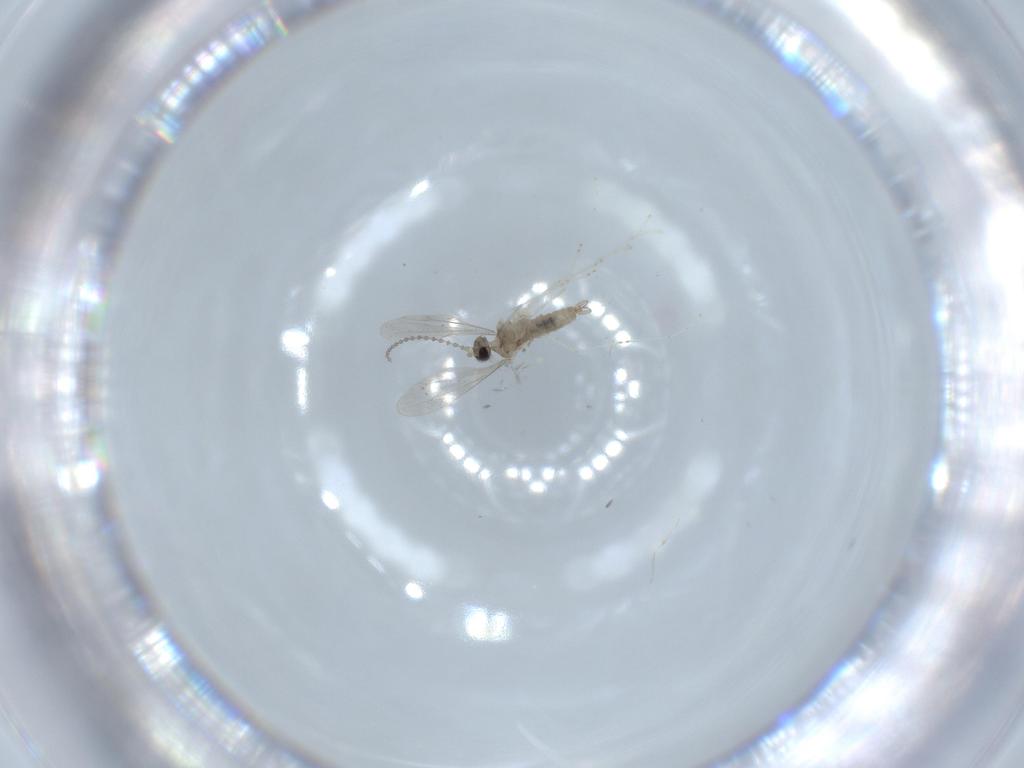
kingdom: Animalia
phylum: Arthropoda
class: Insecta
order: Diptera
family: Cecidomyiidae
